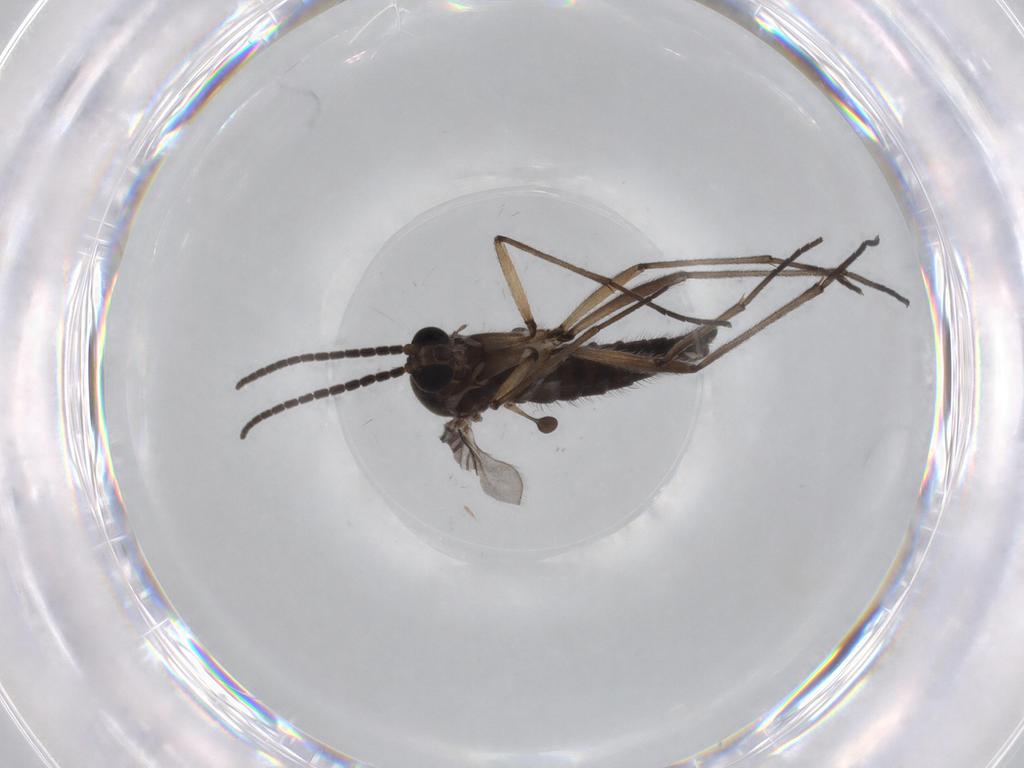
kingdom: Animalia
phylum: Arthropoda
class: Insecta
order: Diptera
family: Sciaridae
